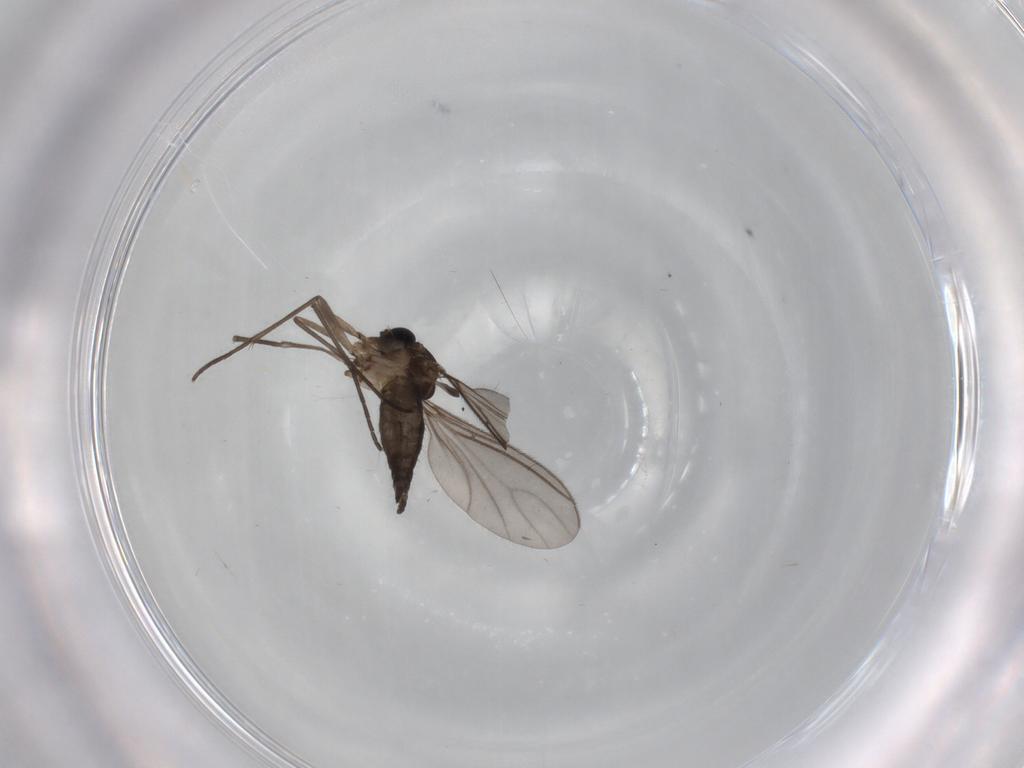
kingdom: Animalia
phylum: Arthropoda
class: Insecta
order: Diptera
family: Sciaridae
